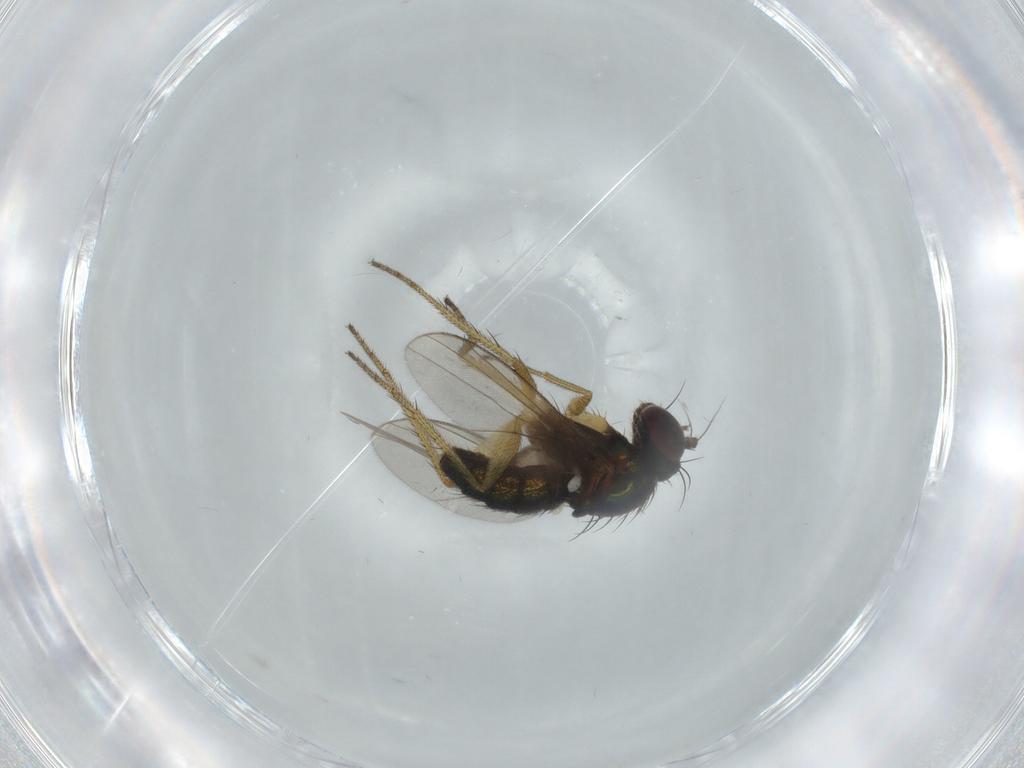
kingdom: Animalia
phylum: Arthropoda
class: Insecta
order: Diptera
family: Dolichopodidae
